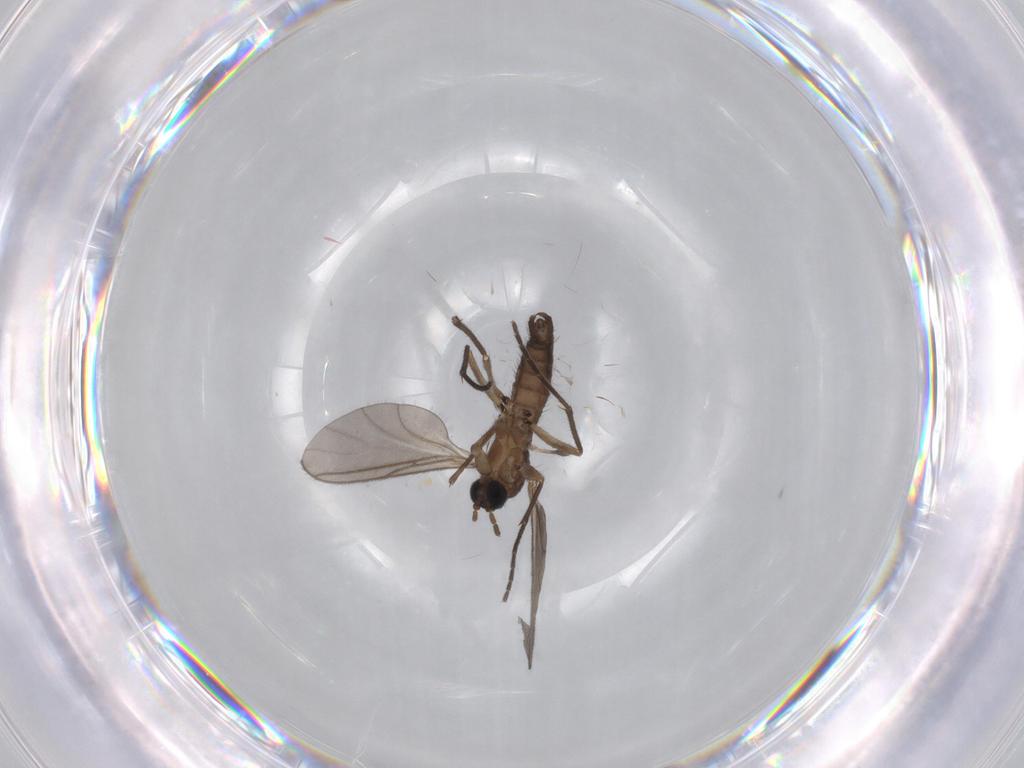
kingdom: Animalia
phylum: Arthropoda
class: Insecta
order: Diptera
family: Sciaridae
